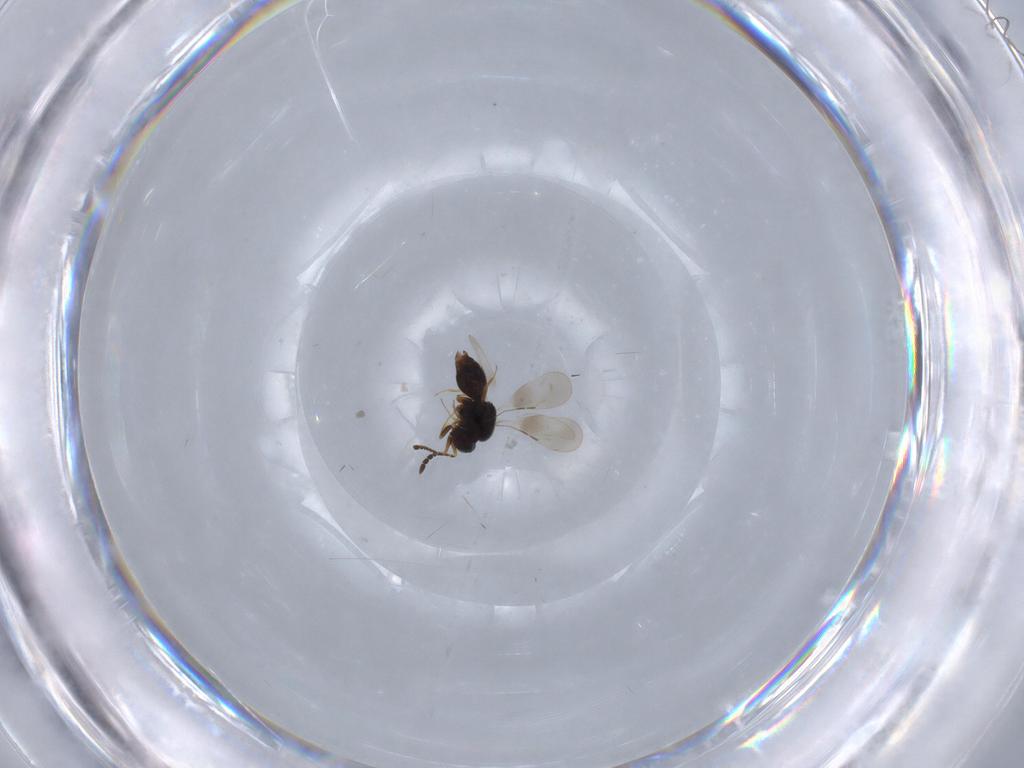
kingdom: Animalia
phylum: Arthropoda
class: Insecta
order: Hymenoptera
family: Ceraphronidae
